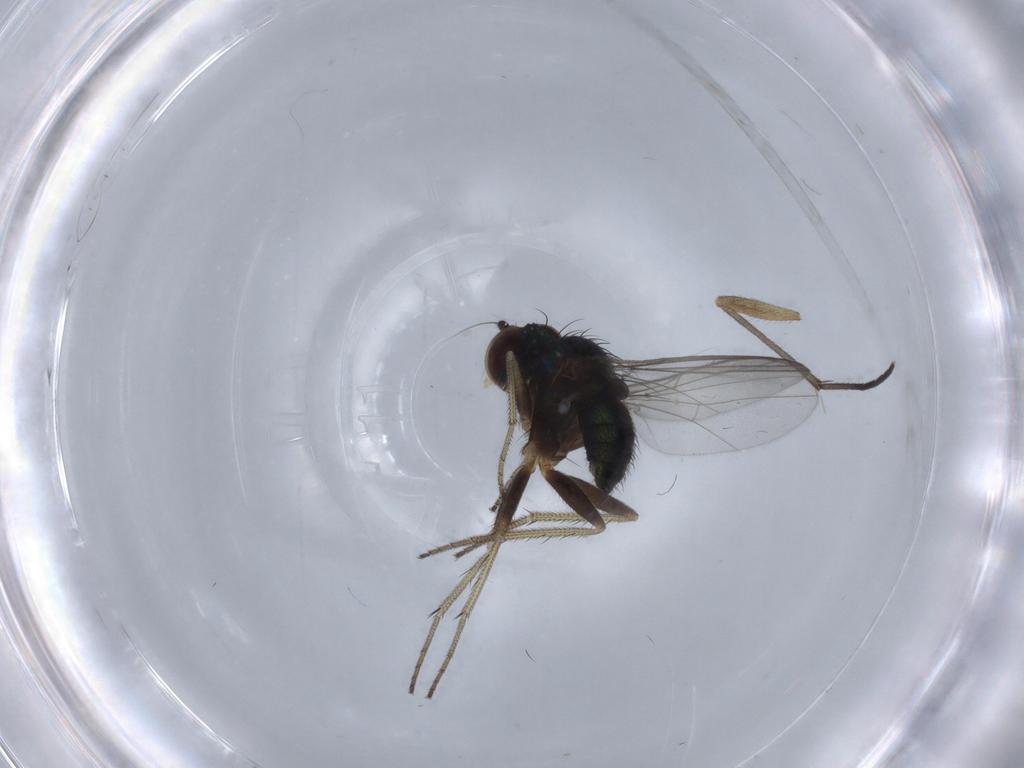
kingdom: Animalia
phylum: Arthropoda
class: Insecta
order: Diptera
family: Sciaridae
